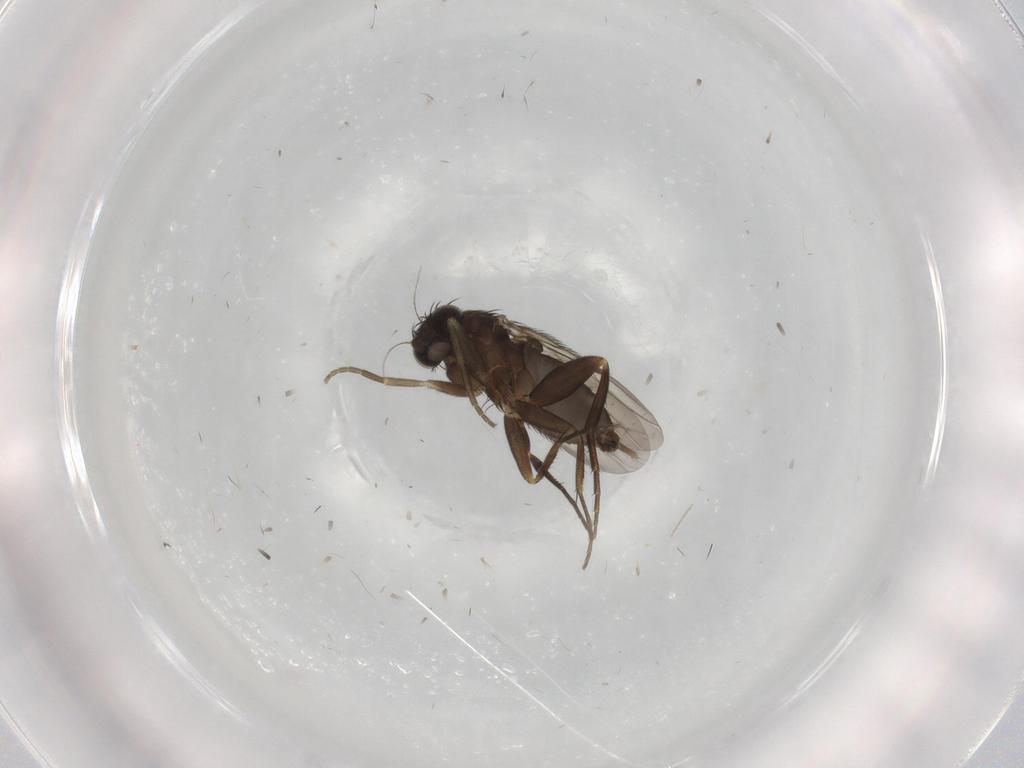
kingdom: Animalia
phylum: Arthropoda
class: Insecta
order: Diptera
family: Phoridae
